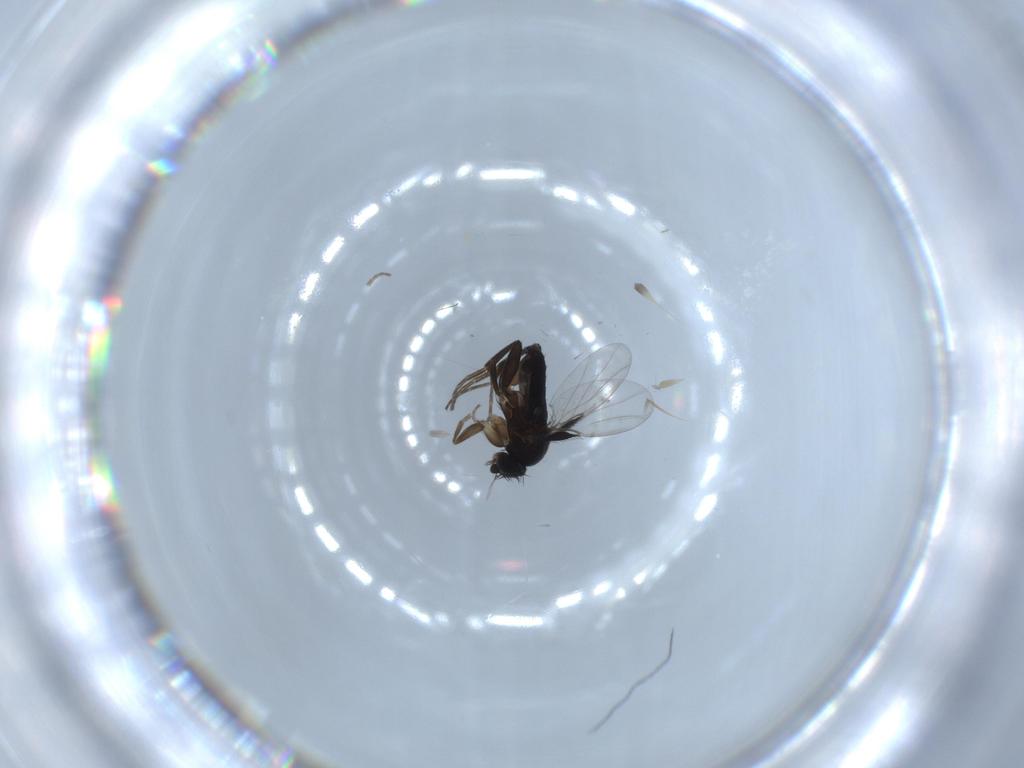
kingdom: Animalia
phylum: Arthropoda
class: Insecta
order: Diptera
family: Phoridae
